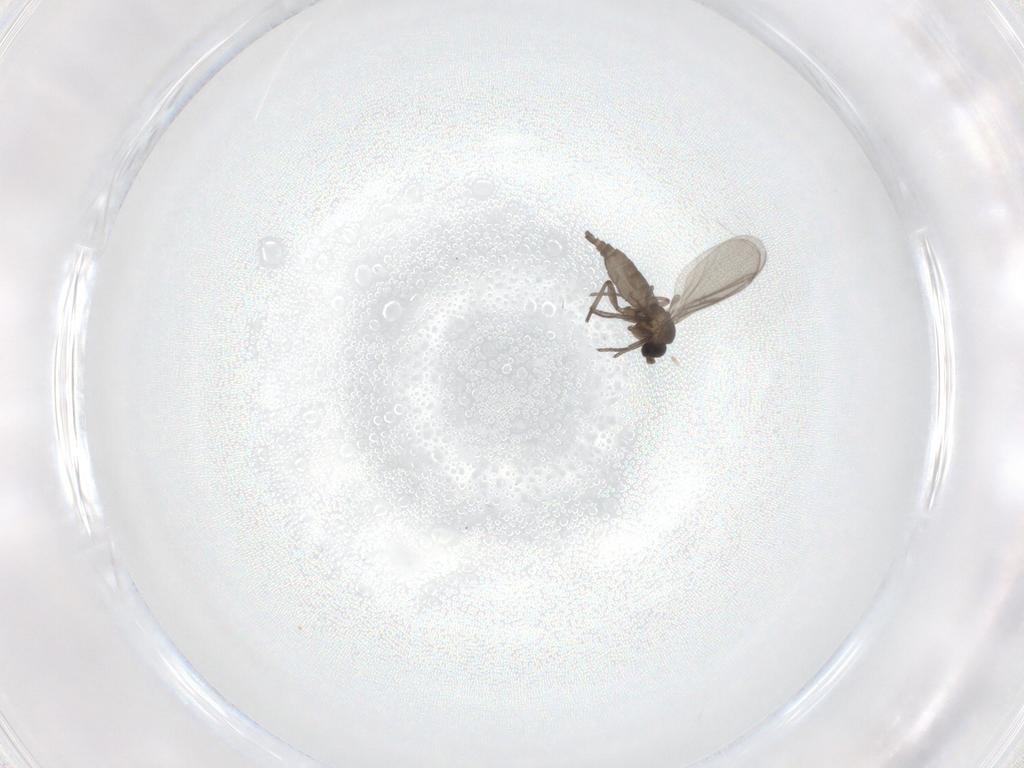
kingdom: Animalia
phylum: Arthropoda
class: Insecta
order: Diptera
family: Sciaridae
